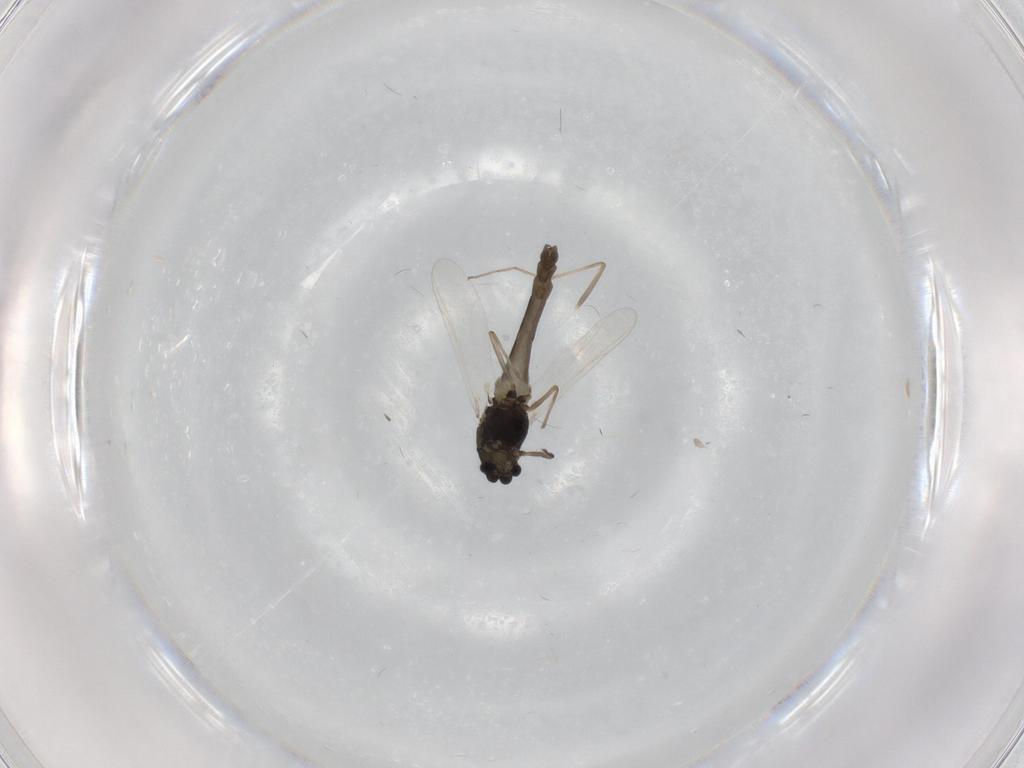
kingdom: Animalia
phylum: Arthropoda
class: Insecta
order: Diptera
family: Chironomidae
